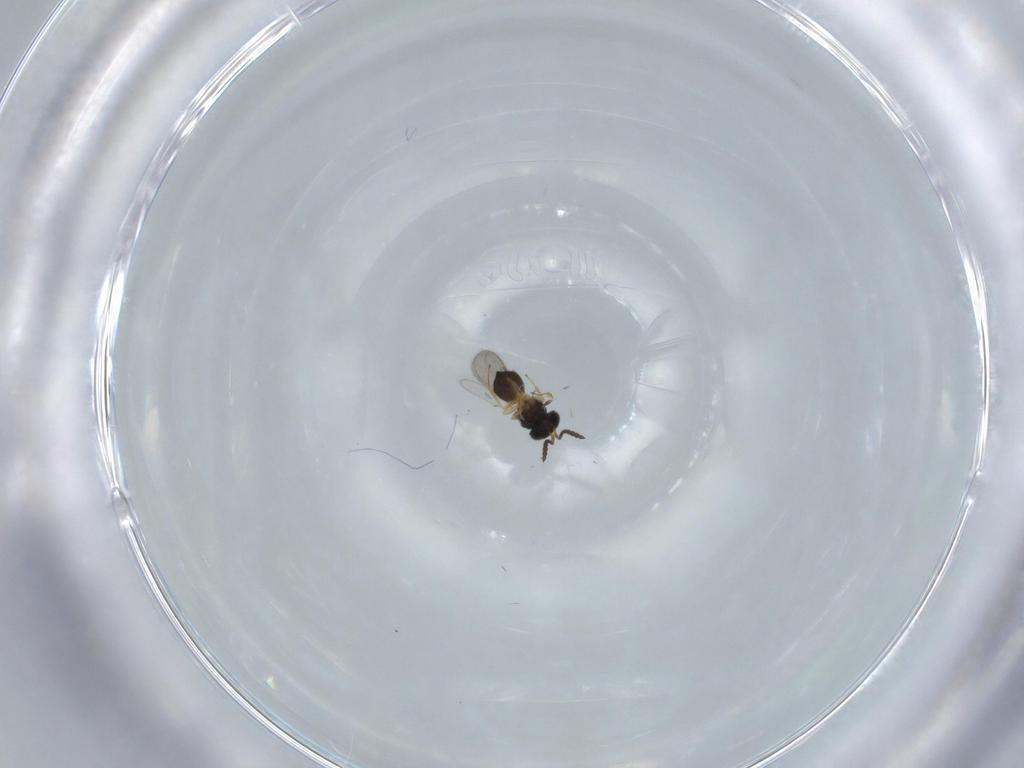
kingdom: Animalia
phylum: Arthropoda
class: Insecta
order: Hymenoptera
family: Scelionidae
